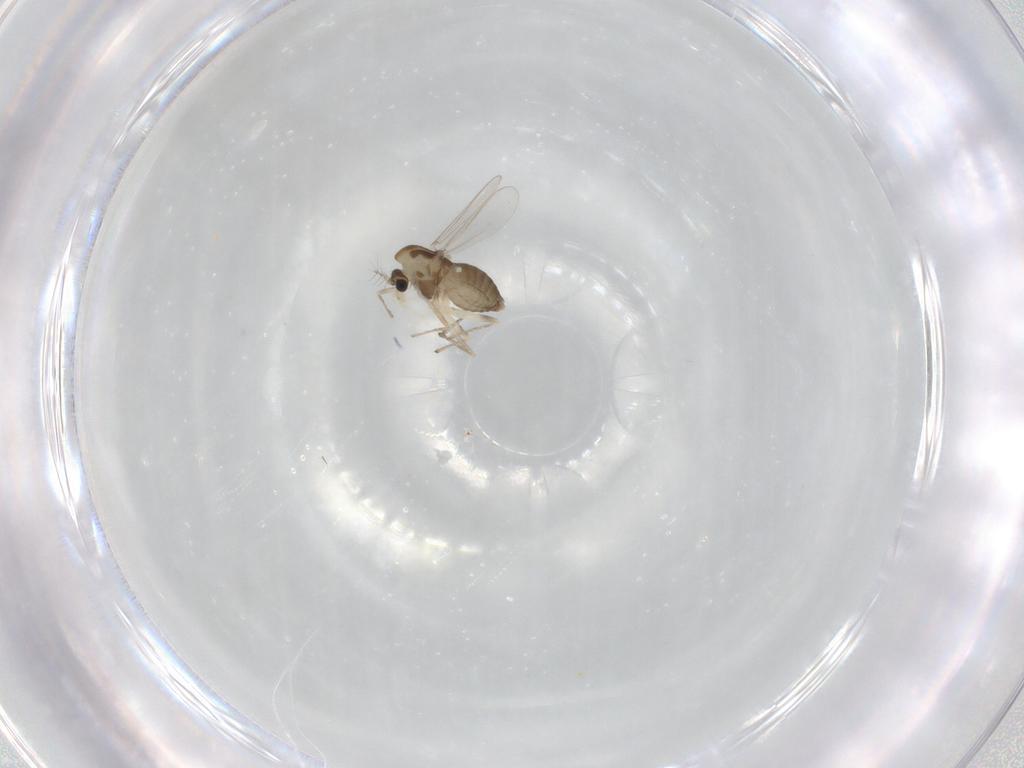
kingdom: Animalia
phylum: Arthropoda
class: Insecta
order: Diptera
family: Chironomidae
